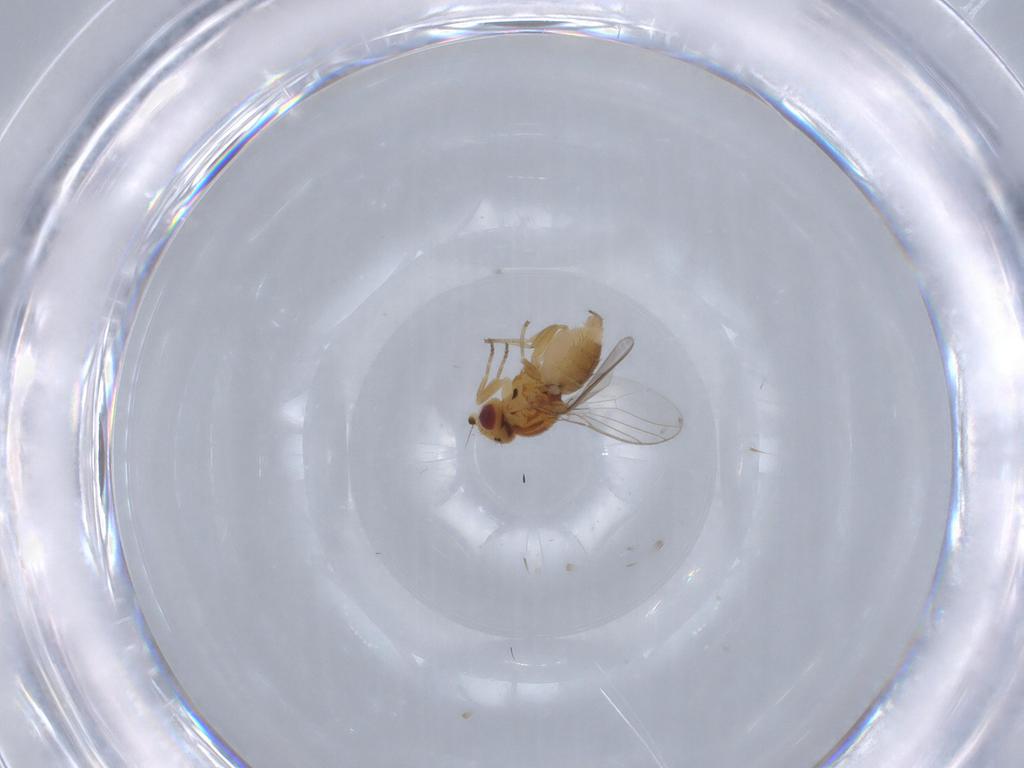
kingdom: Animalia
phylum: Arthropoda
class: Insecta
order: Diptera
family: Chloropidae
